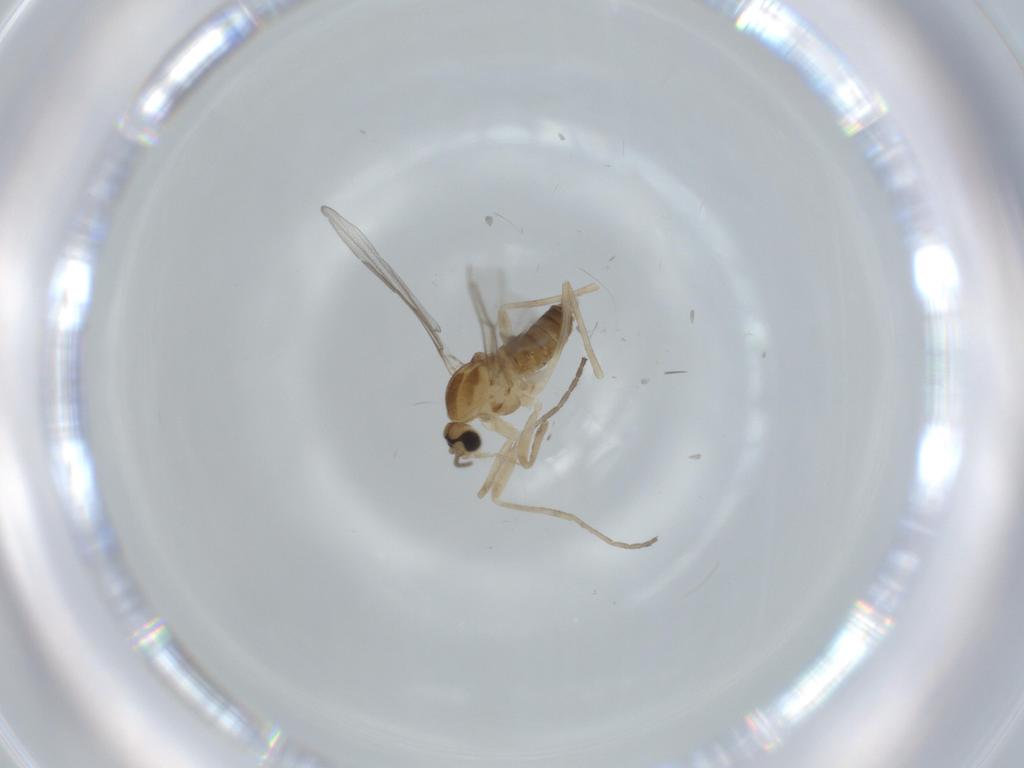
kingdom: Animalia
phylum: Arthropoda
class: Insecta
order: Diptera
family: Cecidomyiidae
